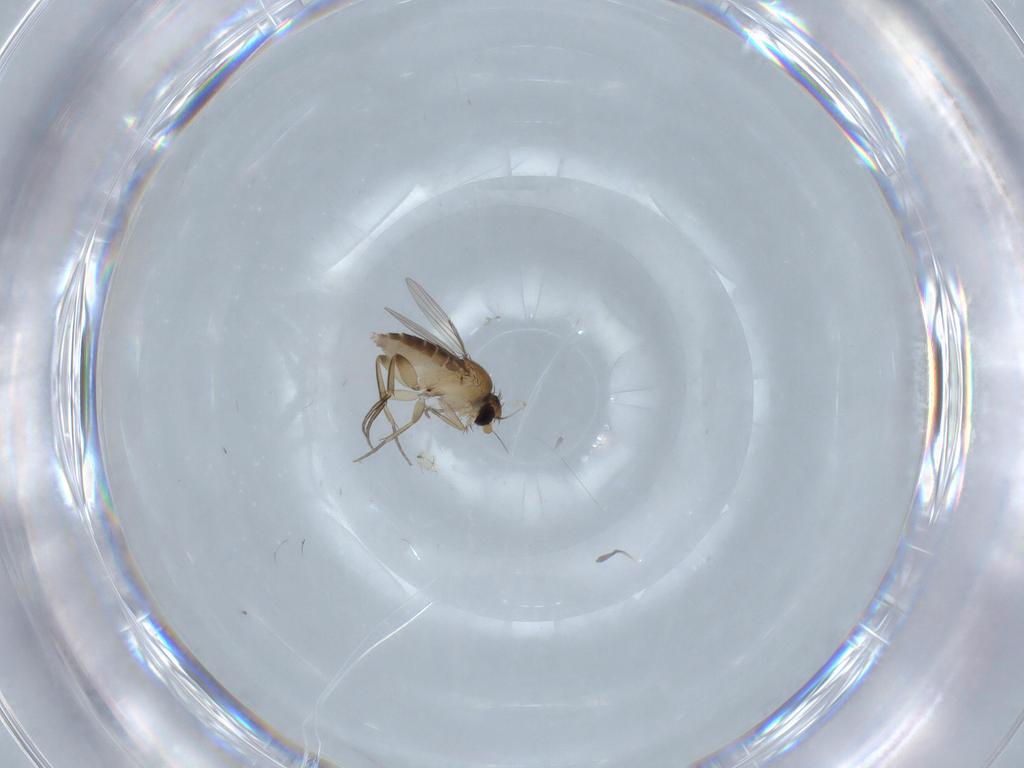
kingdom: Animalia
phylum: Arthropoda
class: Insecta
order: Diptera
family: Phoridae
